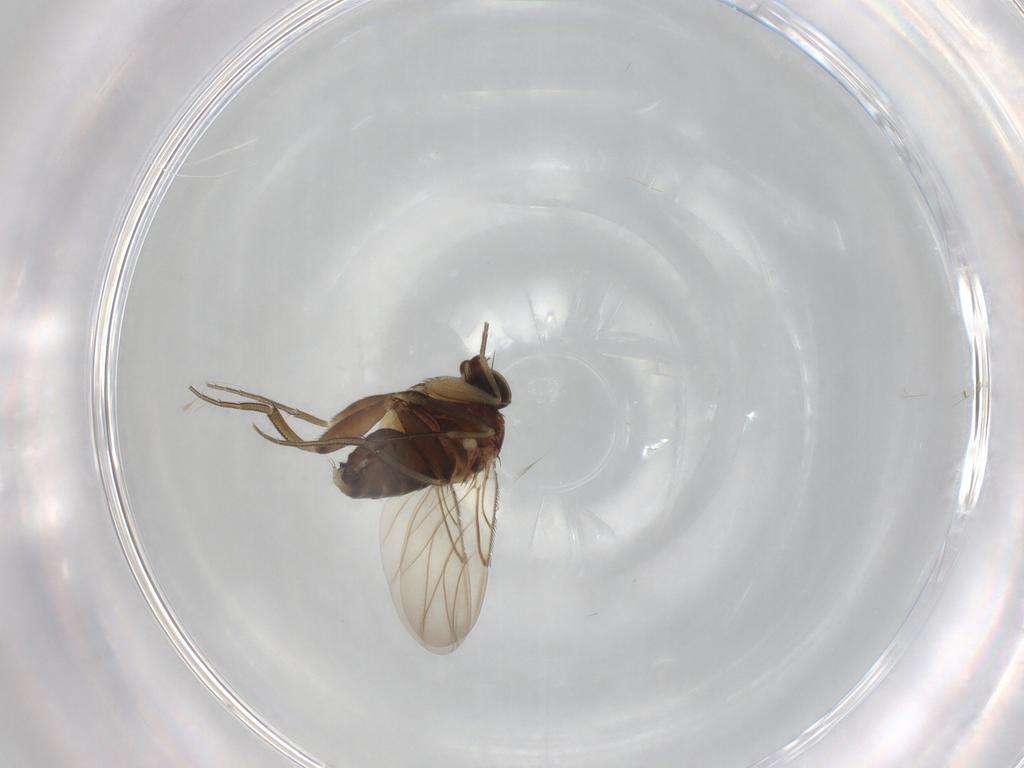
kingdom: Animalia
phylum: Arthropoda
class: Insecta
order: Diptera
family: Phoridae
